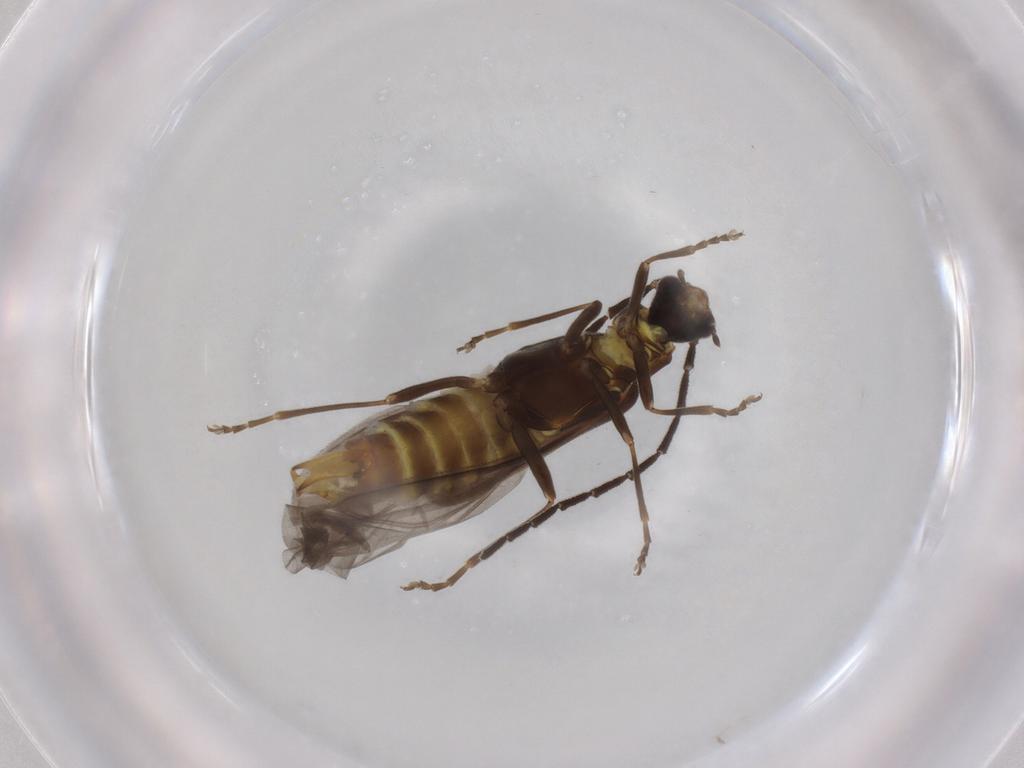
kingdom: Animalia
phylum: Arthropoda
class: Insecta
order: Coleoptera
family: Cantharidae
